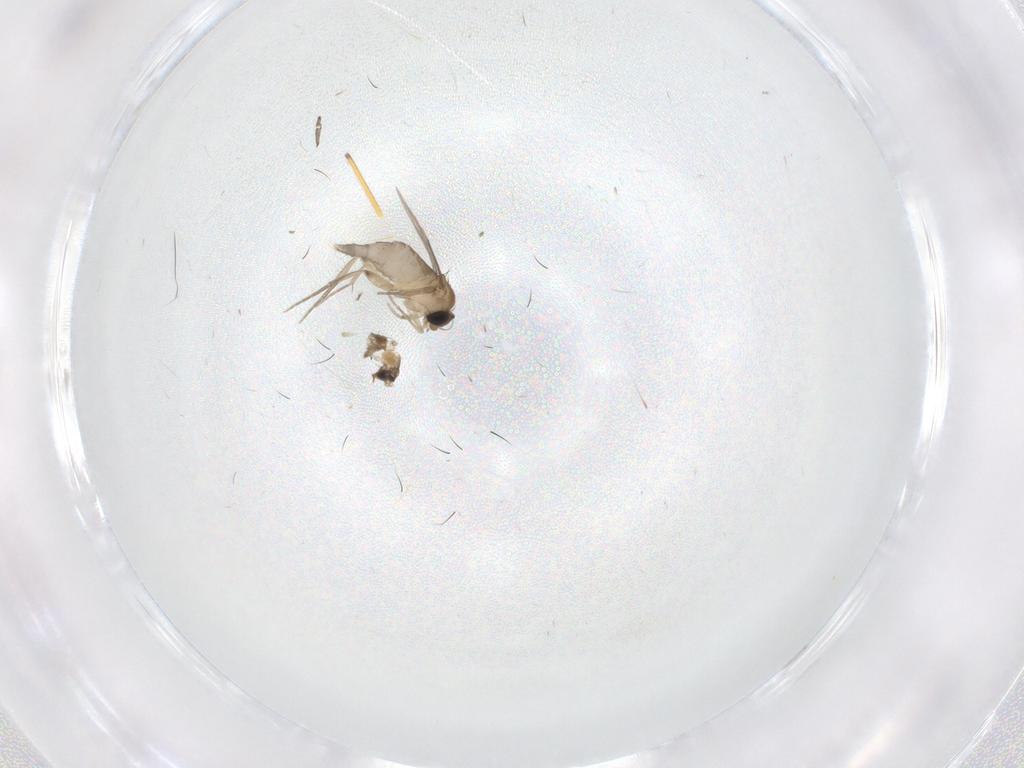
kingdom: Animalia
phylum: Arthropoda
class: Insecta
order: Diptera
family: Phoridae
